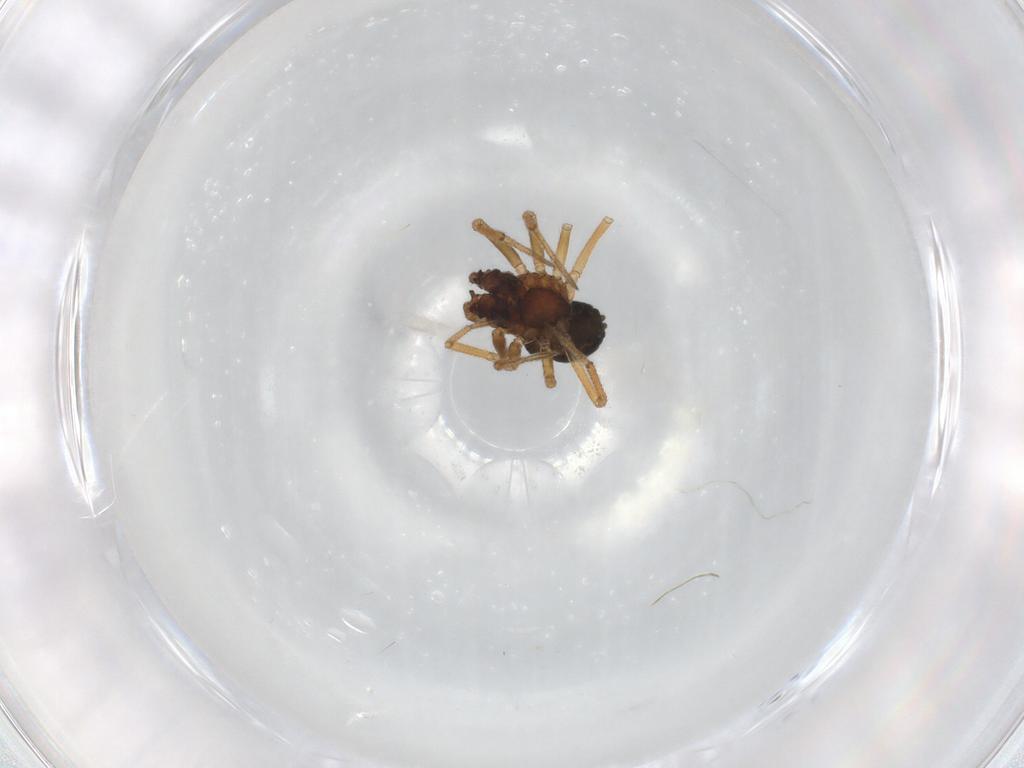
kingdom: Animalia
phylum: Arthropoda
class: Arachnida
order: Araneae
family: Linyphiidae
